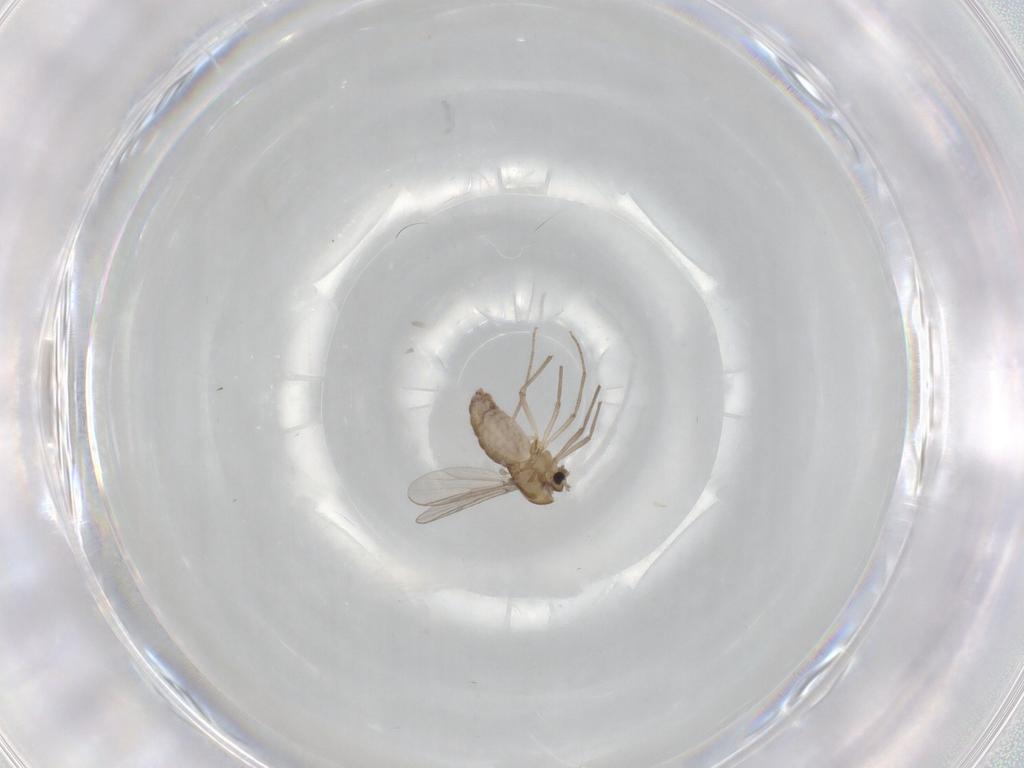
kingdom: Animalia
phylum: Arthropoda
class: Insecta
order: Diptera
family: Chironomidae
